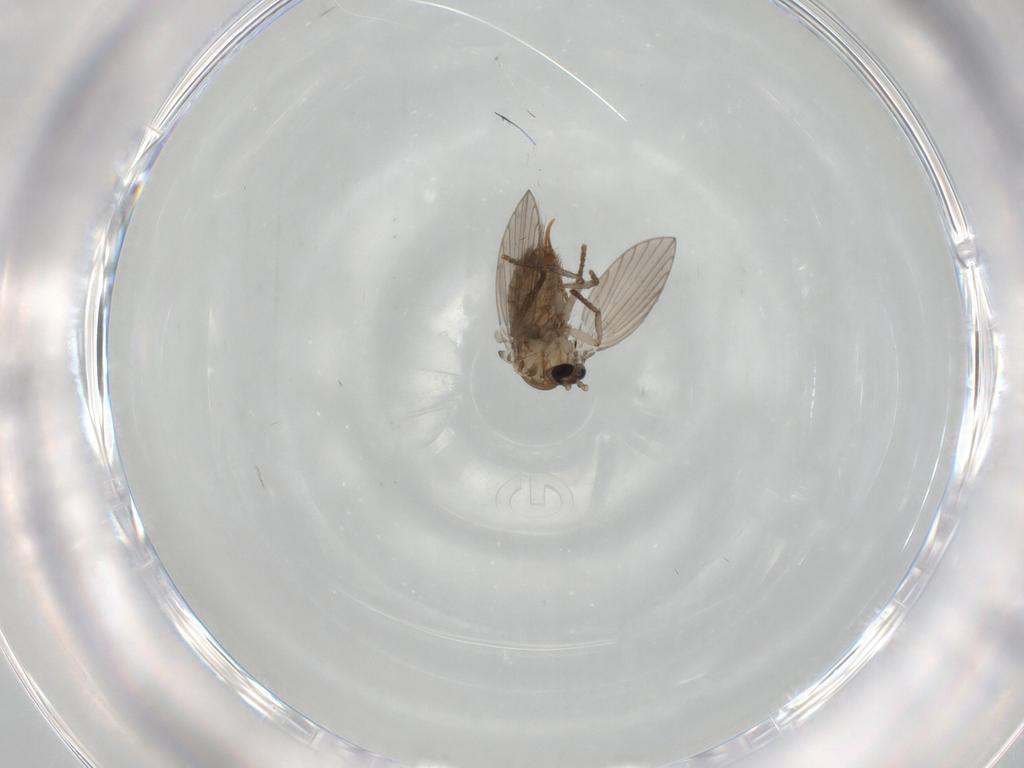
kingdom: Animalia
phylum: Arthropoda
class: Insecta
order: Diptera
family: Psychodidae
